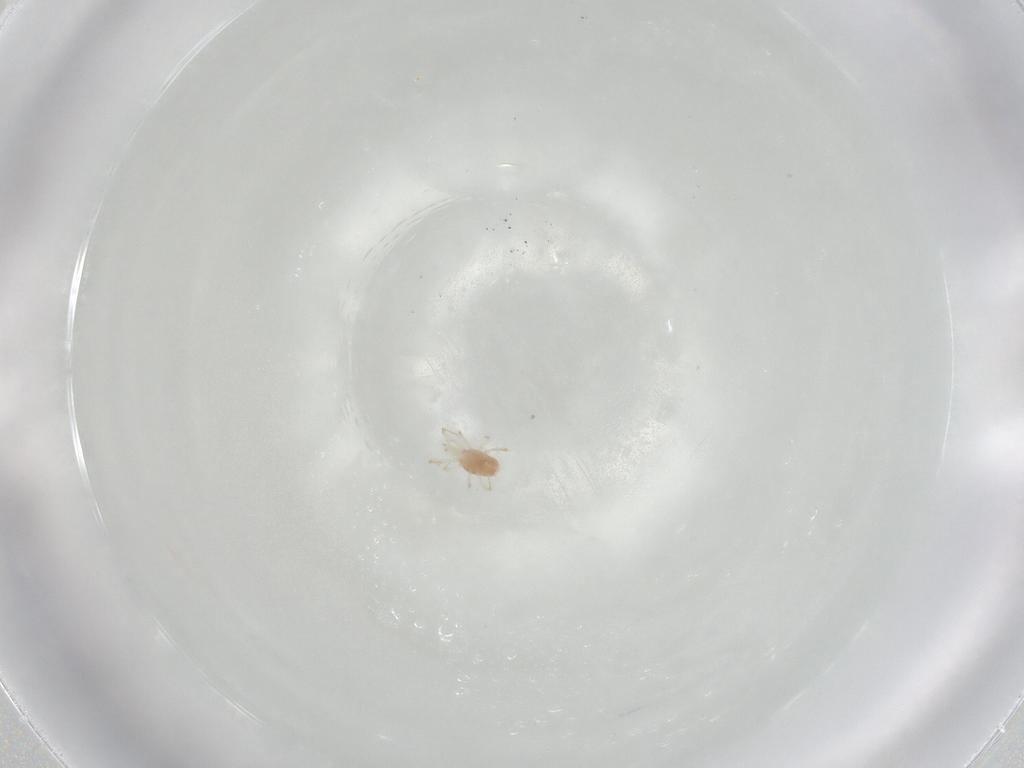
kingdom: Animalia
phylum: Arthropoda
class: Arachnida
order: Mesostigmata
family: Phytoseiidae
